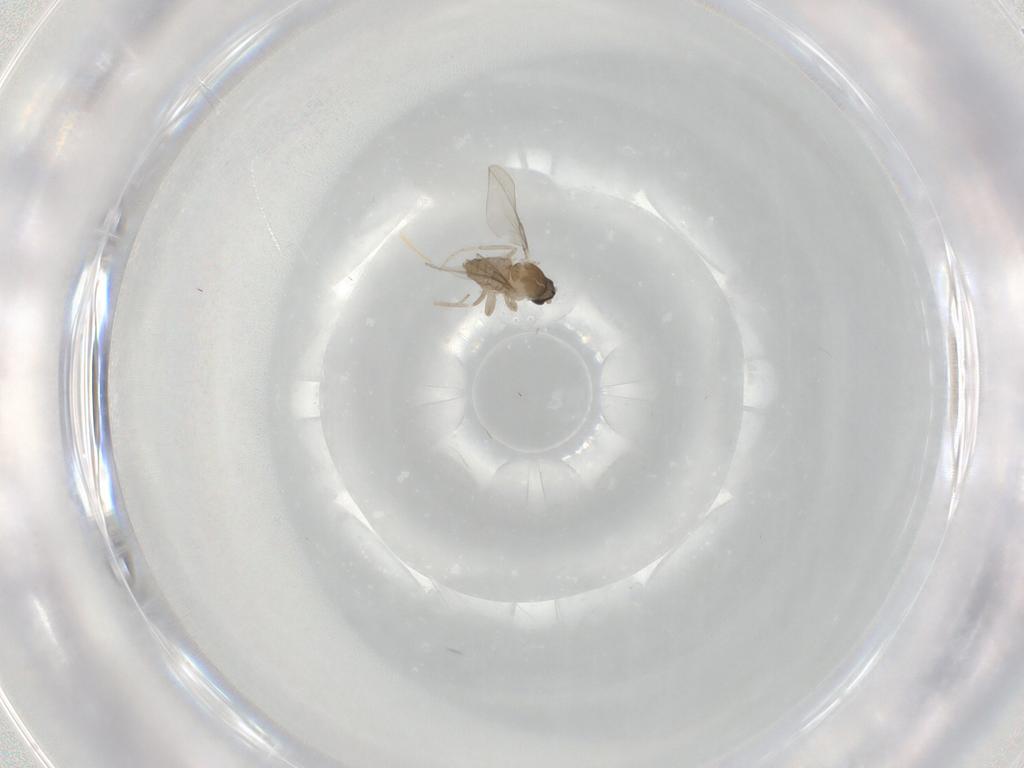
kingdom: Animalia
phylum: Arthropoda
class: Insecta
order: Diptera
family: Cecidomyiidae
